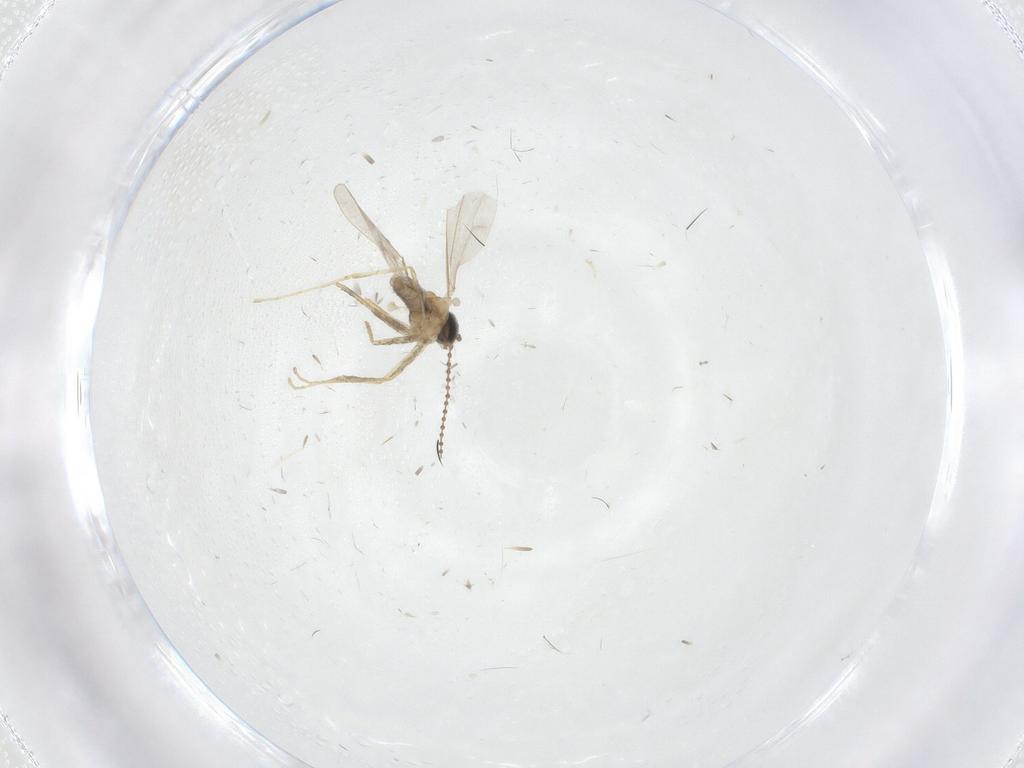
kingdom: Animalia
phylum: Arthropoda
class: Insecta
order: Diptera
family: Cecidomyiidae
